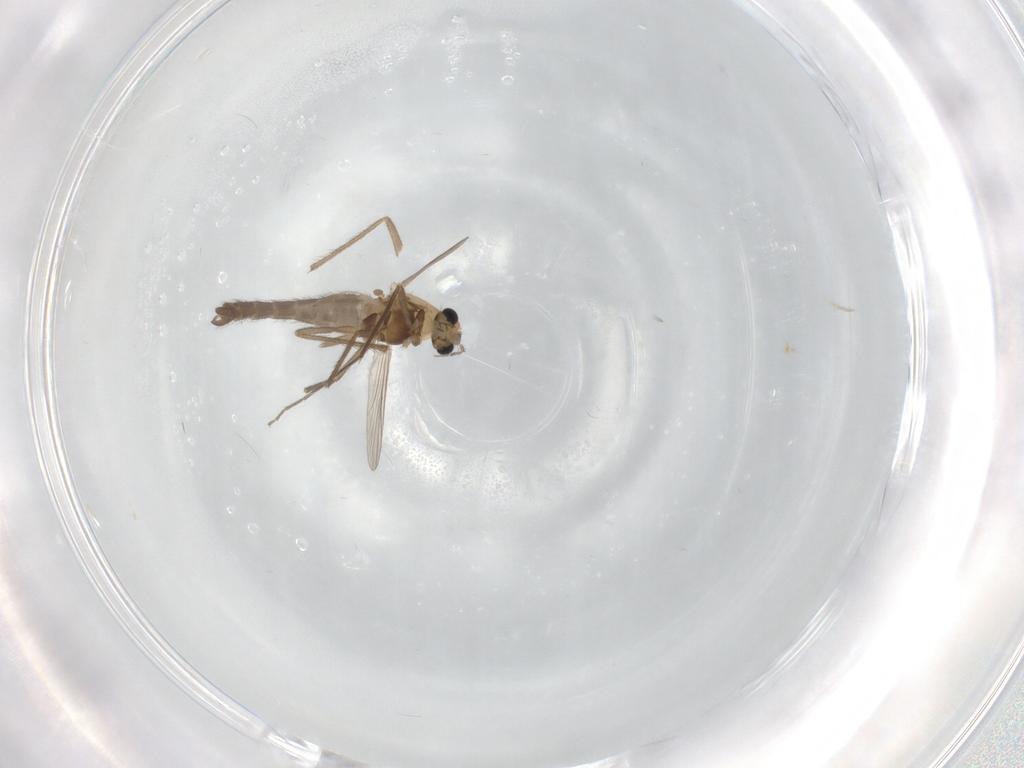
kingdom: Animalia
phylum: Arthropoda
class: Insecta
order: Diptera
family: Chironomidae
